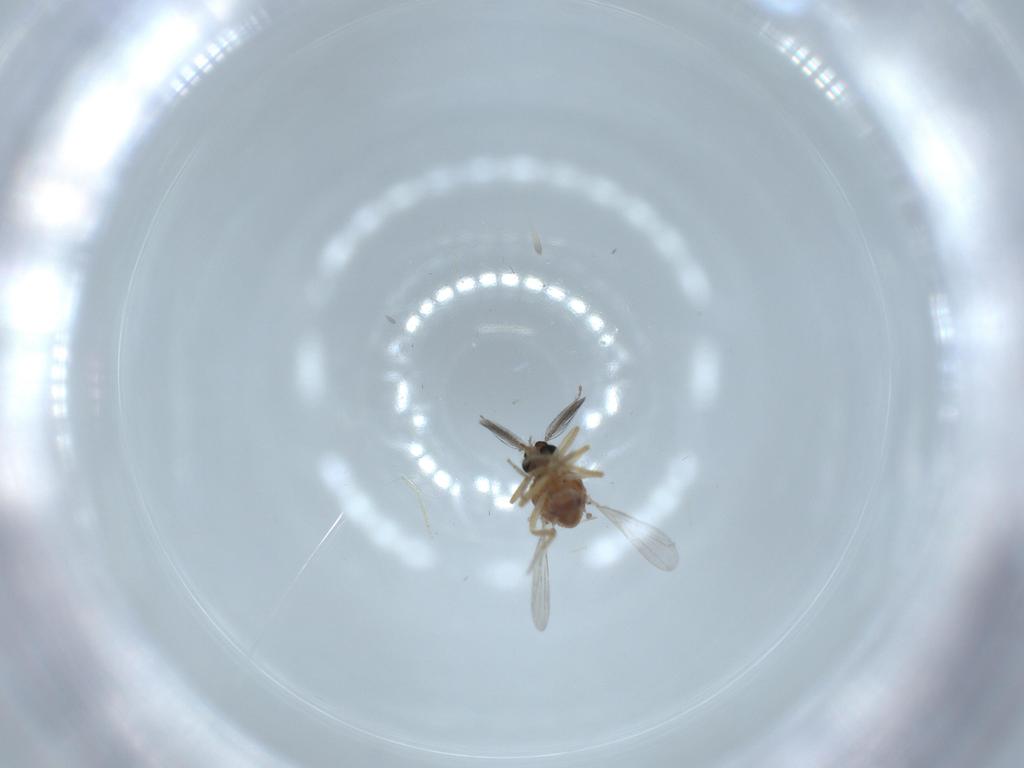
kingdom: Animalia
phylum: Arthropoda
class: Insecta
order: Diptera
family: Ceratopogonidae
